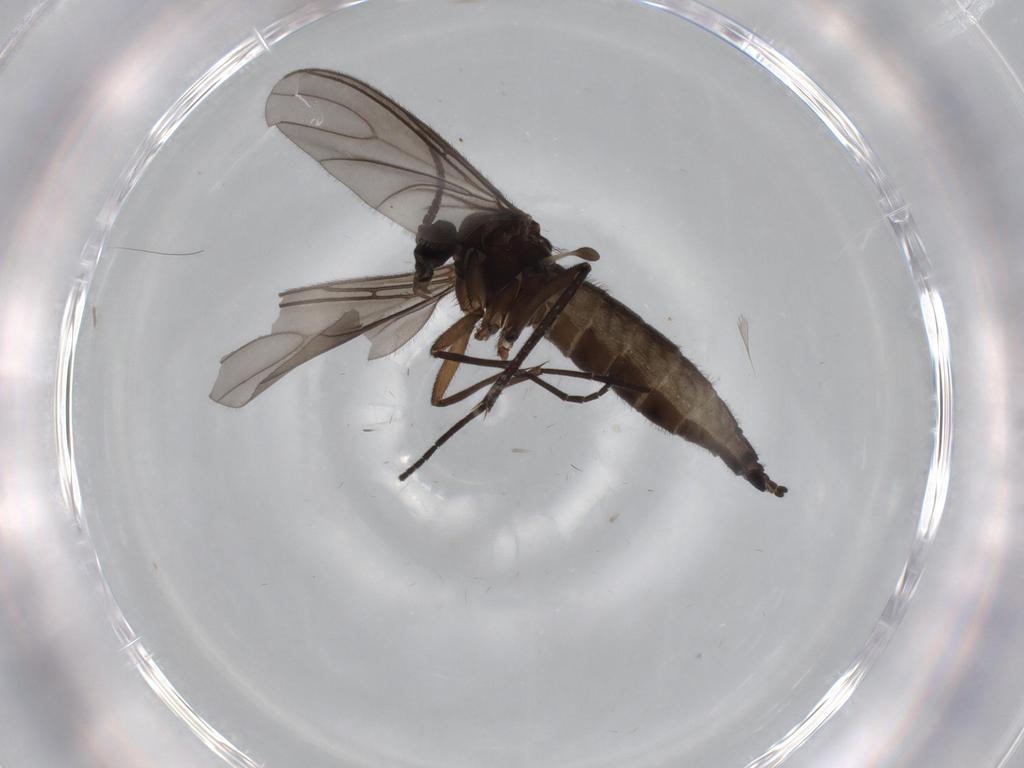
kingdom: Animalia
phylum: Arthropoda
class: Insecta
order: Diptera
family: Sciaridae
